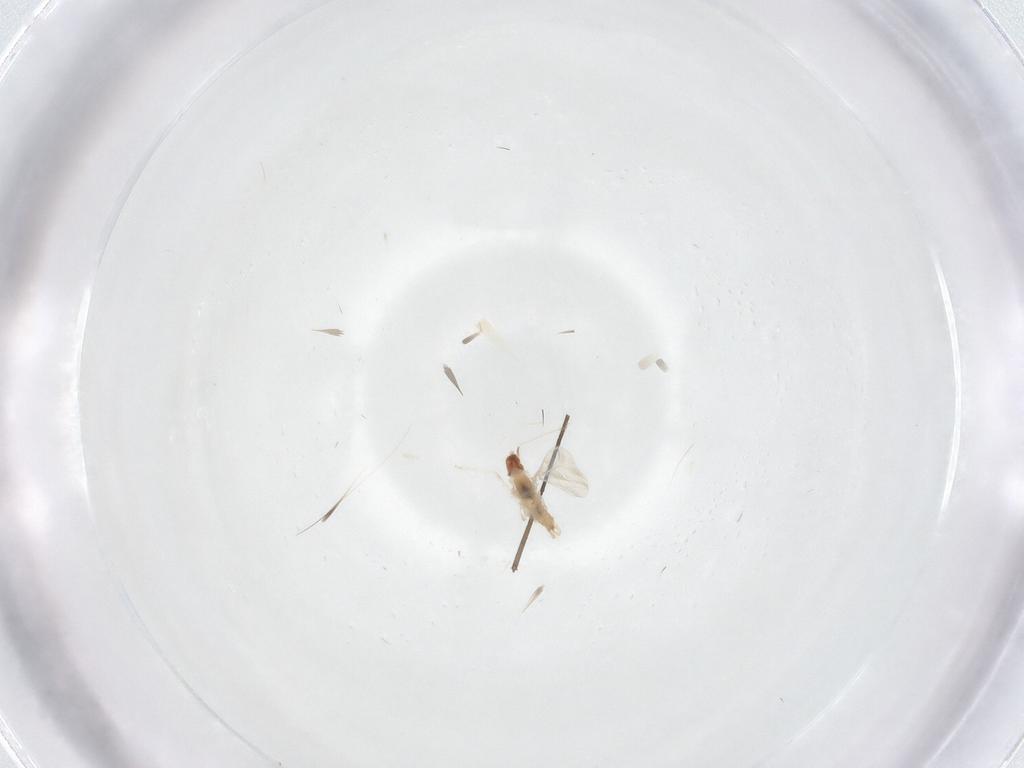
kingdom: Animalia
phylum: Arthropoda
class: Insecta
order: Diptera
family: Cecidomyiidae
